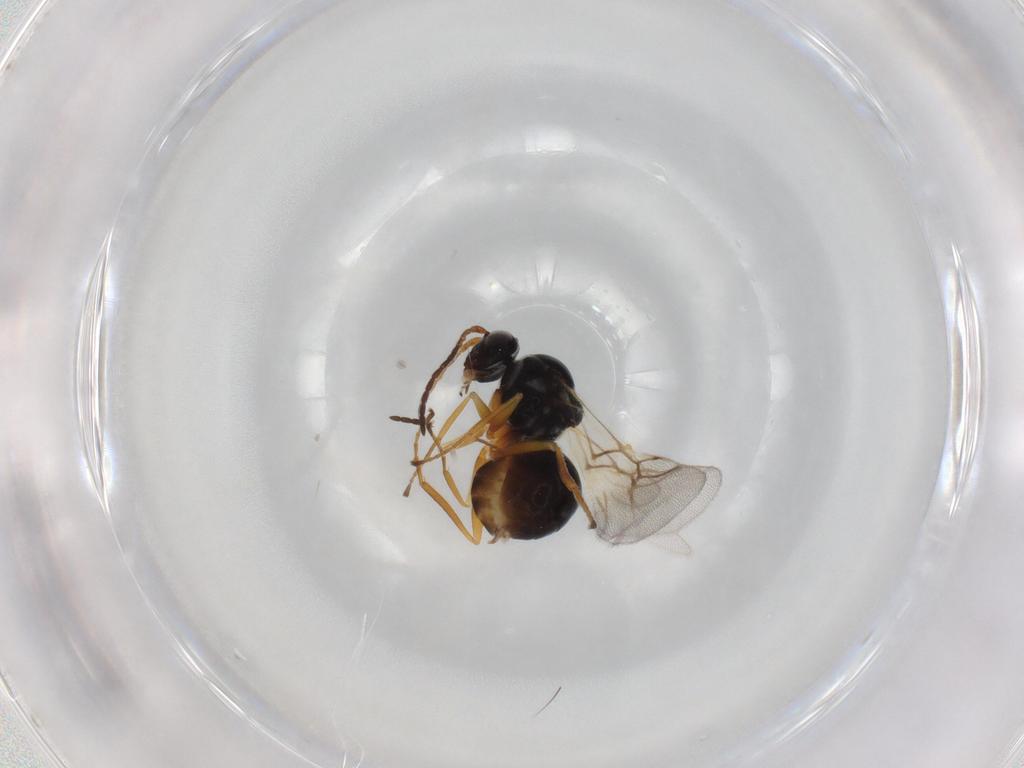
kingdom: Animalia
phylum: Arthropoda
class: Insecta
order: Hymenoptera
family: Figitidae
